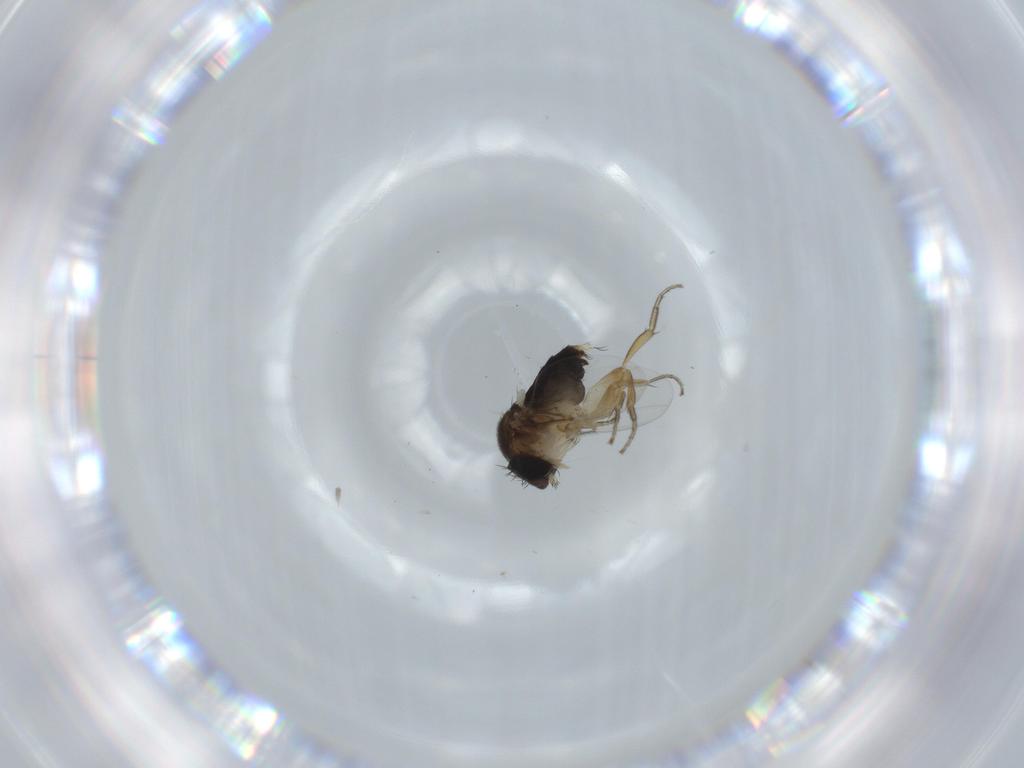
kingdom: Animalia
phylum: Arthropoda
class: Insecta
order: Diptera
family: Phoridae
